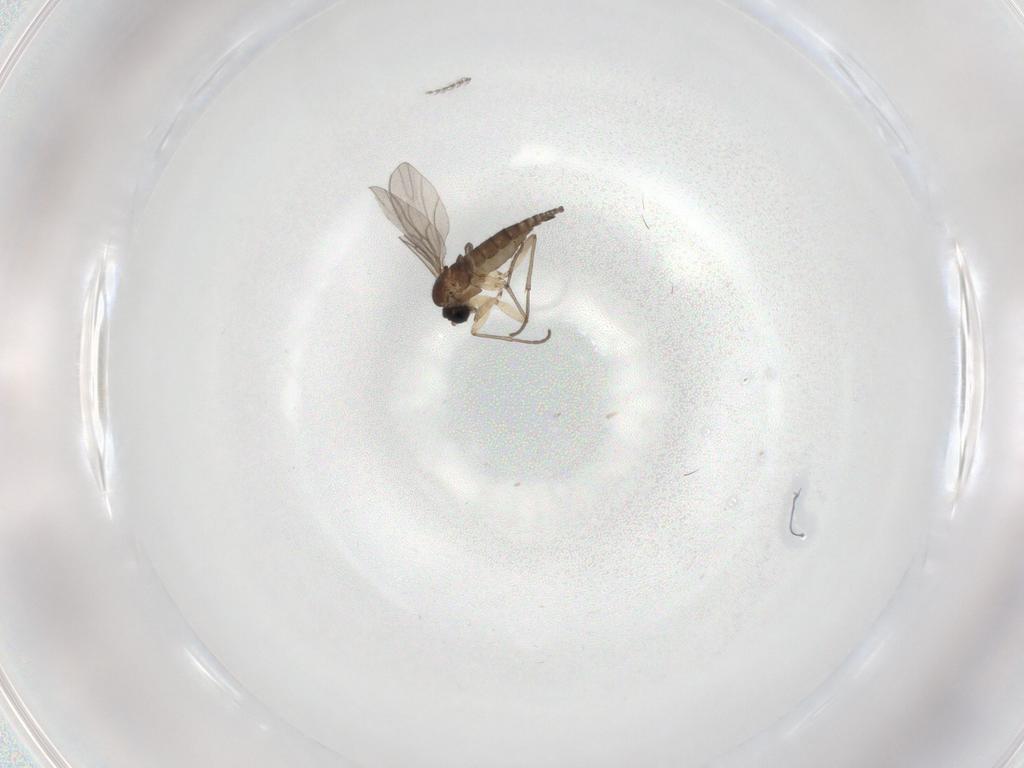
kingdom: Animalia
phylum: Arthropoda
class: Insecta
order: Diptera
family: Sciaridae
